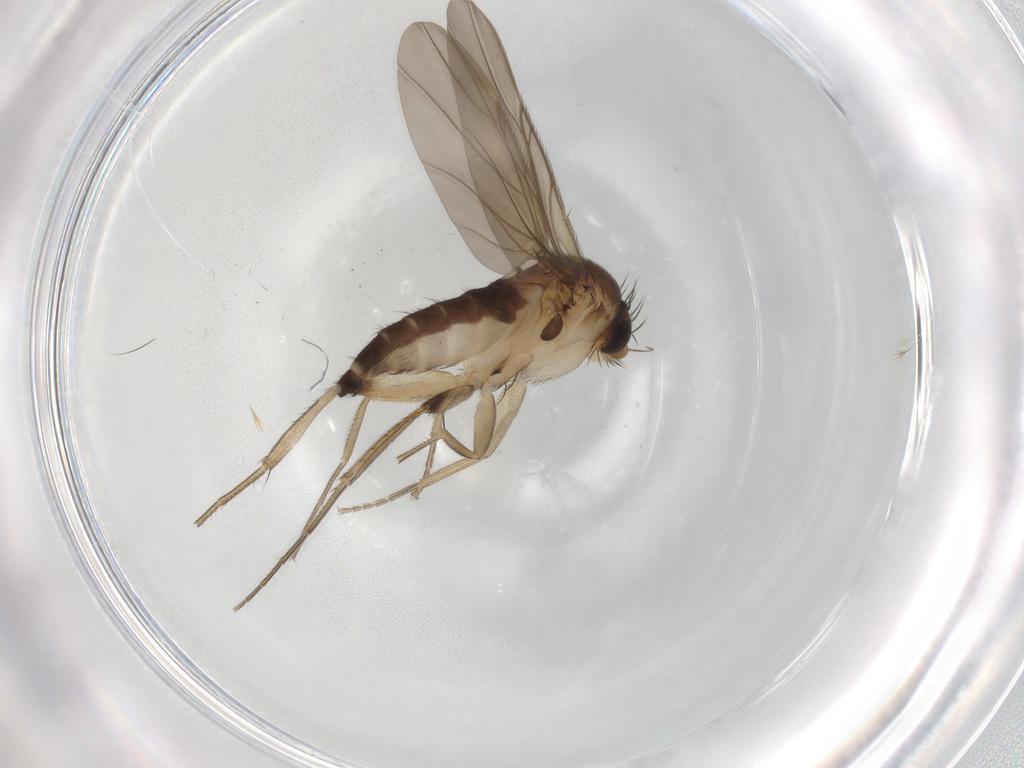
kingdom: Animalia
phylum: Arthropoda
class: Insecta
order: Diptera
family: Phoridae
